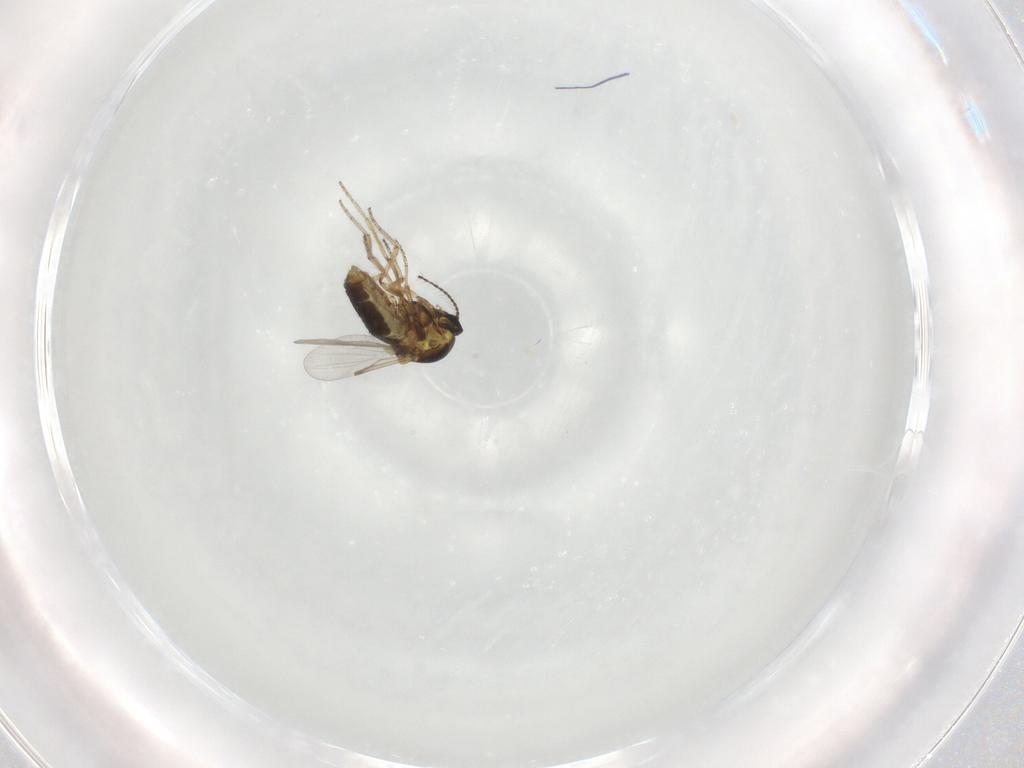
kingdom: Animalia
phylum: Arthropoda
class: Insecta
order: Diptera
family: Ceratopogonidae
